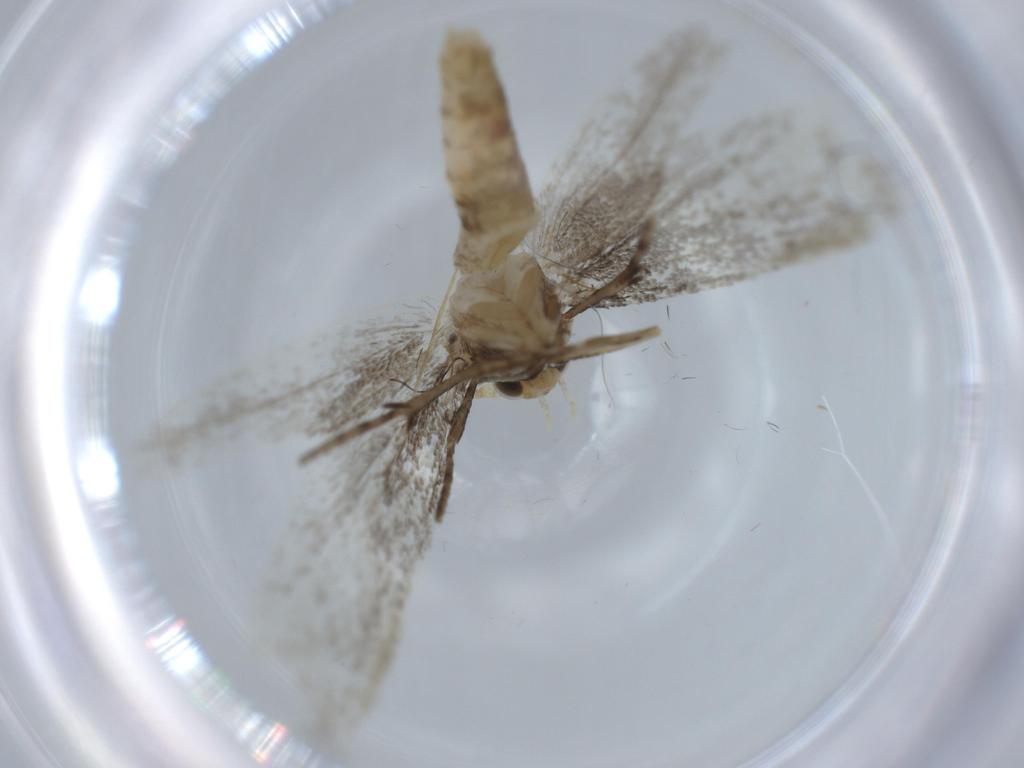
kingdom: Animalia
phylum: Arthropoda
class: Insecta
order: Lepidoptera
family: Argyresthiidae
